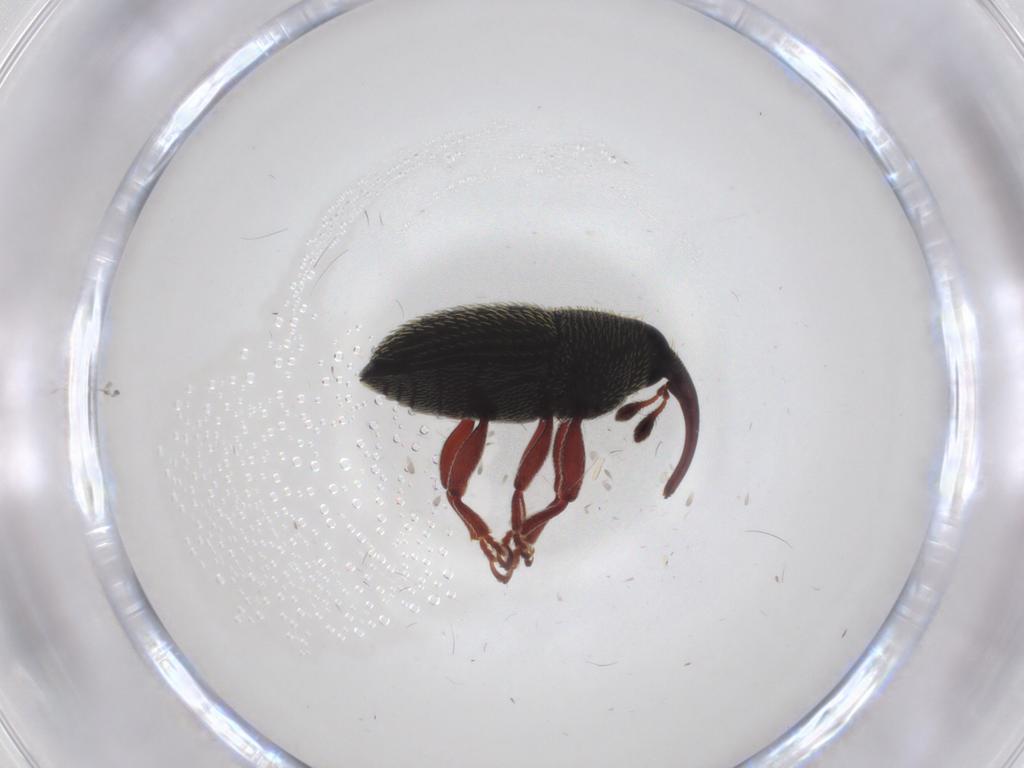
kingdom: Animalia
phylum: Arthropoda
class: Insecta
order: Coleoptera
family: Curculionidae
